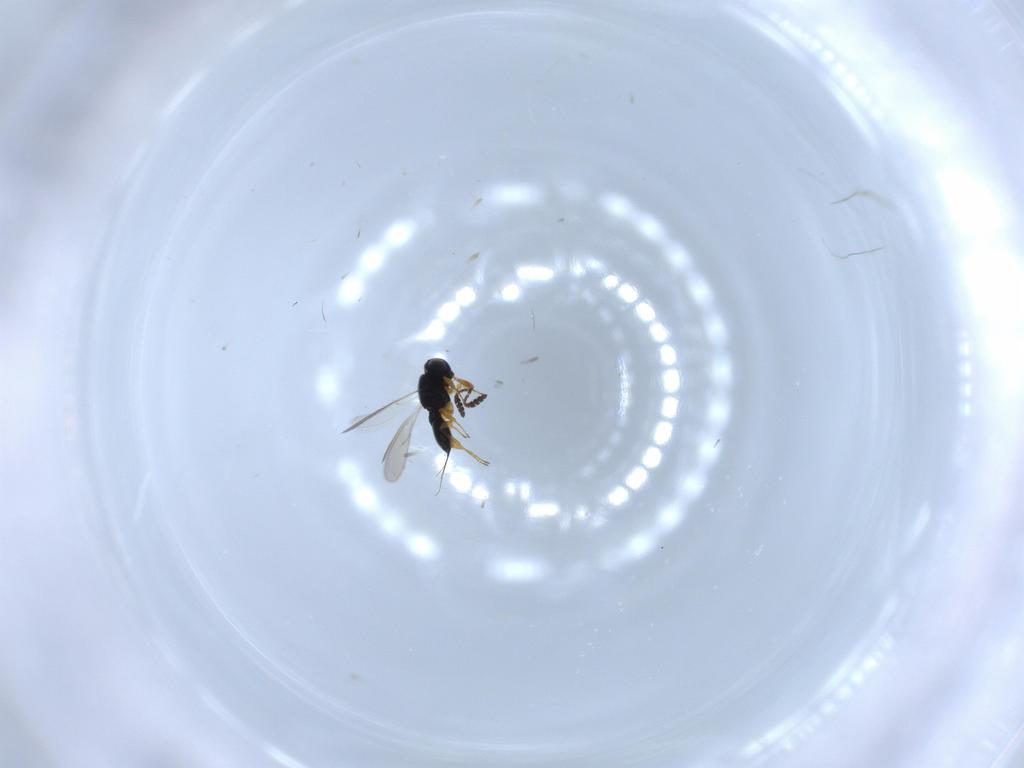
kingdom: Animalia
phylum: Arthropoda
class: Insecta
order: Hymenoptera
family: Scelionidae
